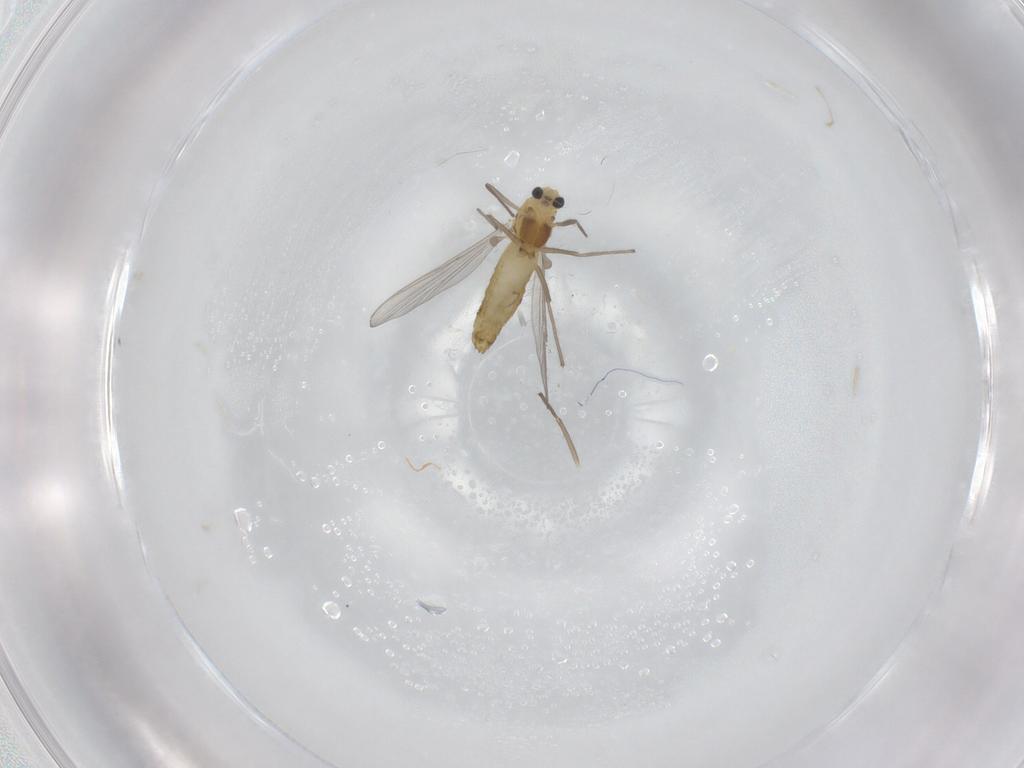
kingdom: Animalia
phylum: Arthropoda
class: Insecta
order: Diptera
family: Chironomidae
